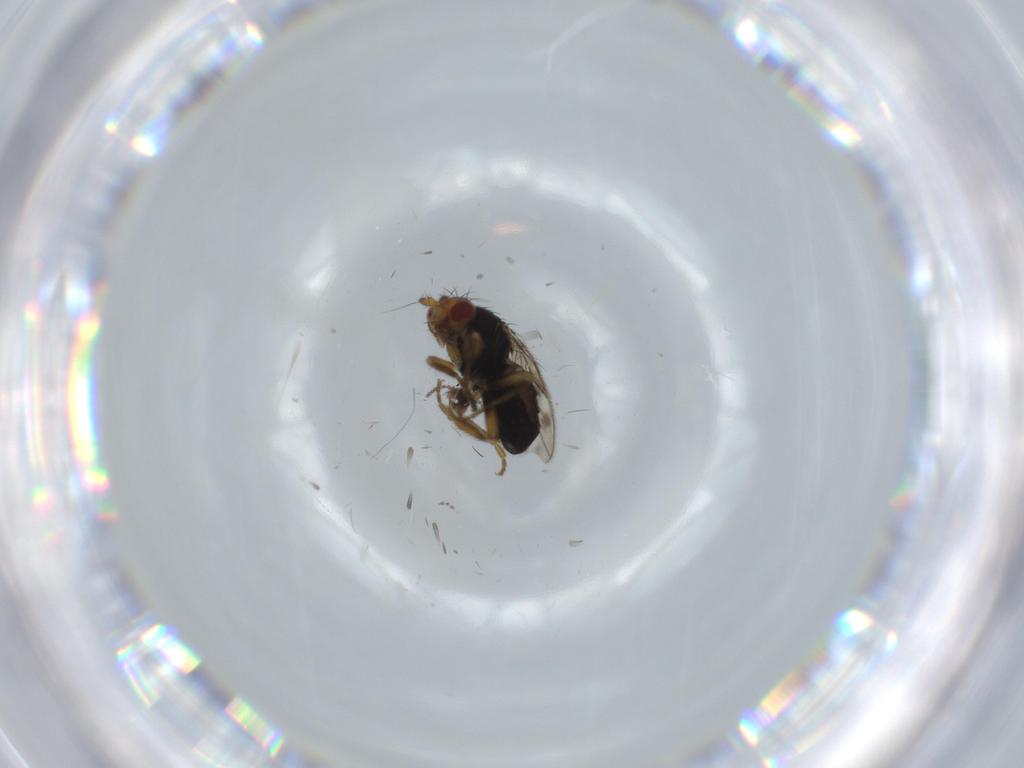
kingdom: Animalia
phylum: Arthropoda
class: Insecta
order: Diptera
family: Sphaeroceridae
